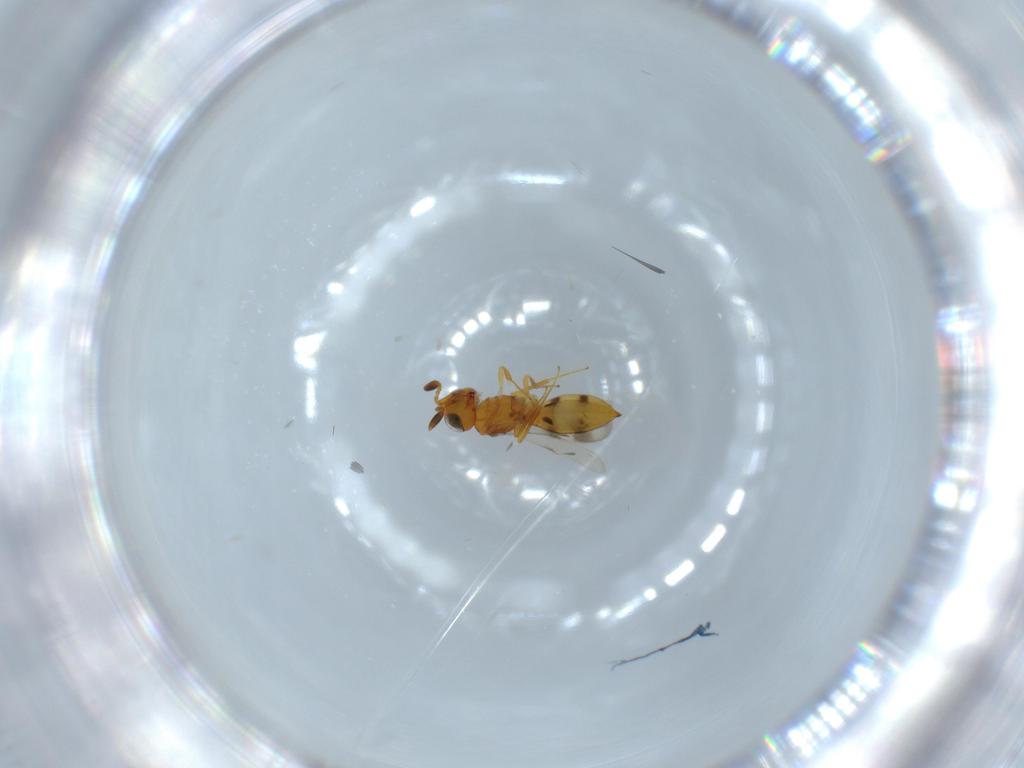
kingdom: Animalia
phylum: Arthropoda
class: Insecta
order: Hymenoptera
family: Scelionidae
